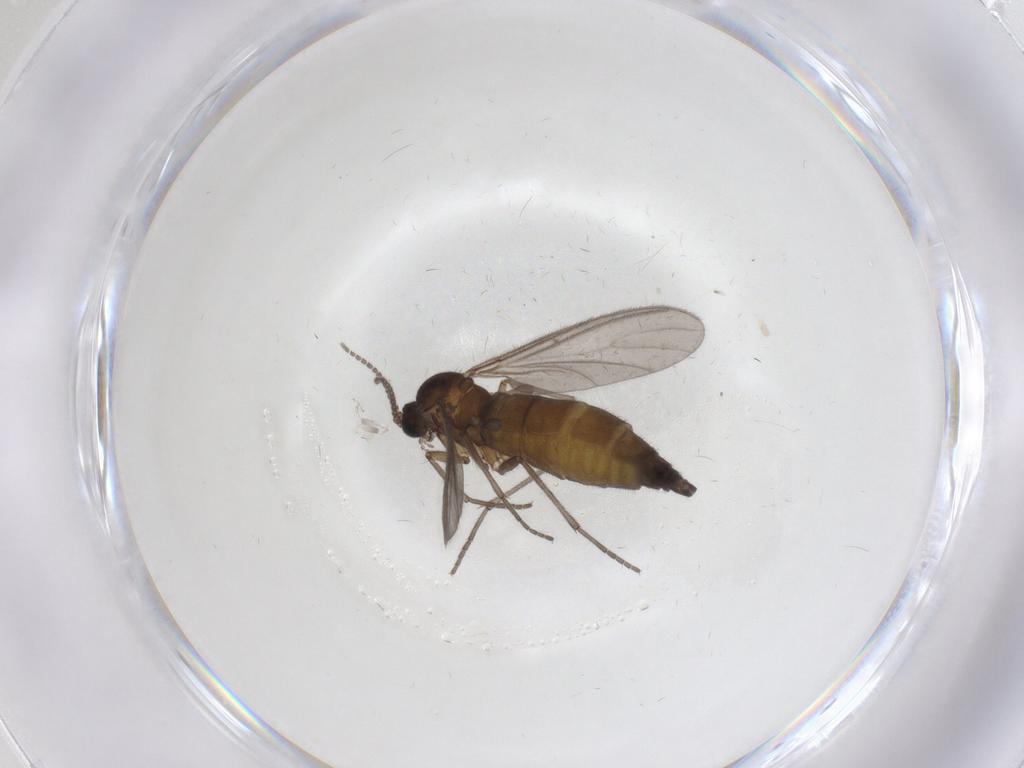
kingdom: Animalia
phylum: Arthropoda
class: Insecta
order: Diptera
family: Sciaridae
